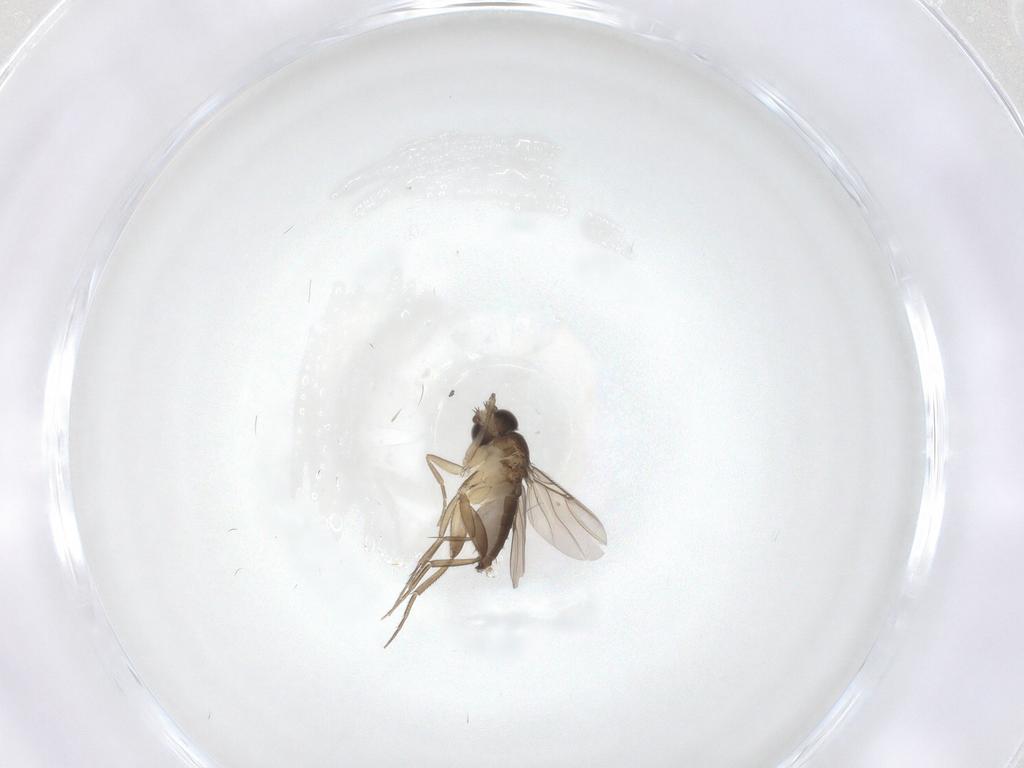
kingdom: Animalia
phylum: Arthropoda
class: Insecta
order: Diptera
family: Phoridae
